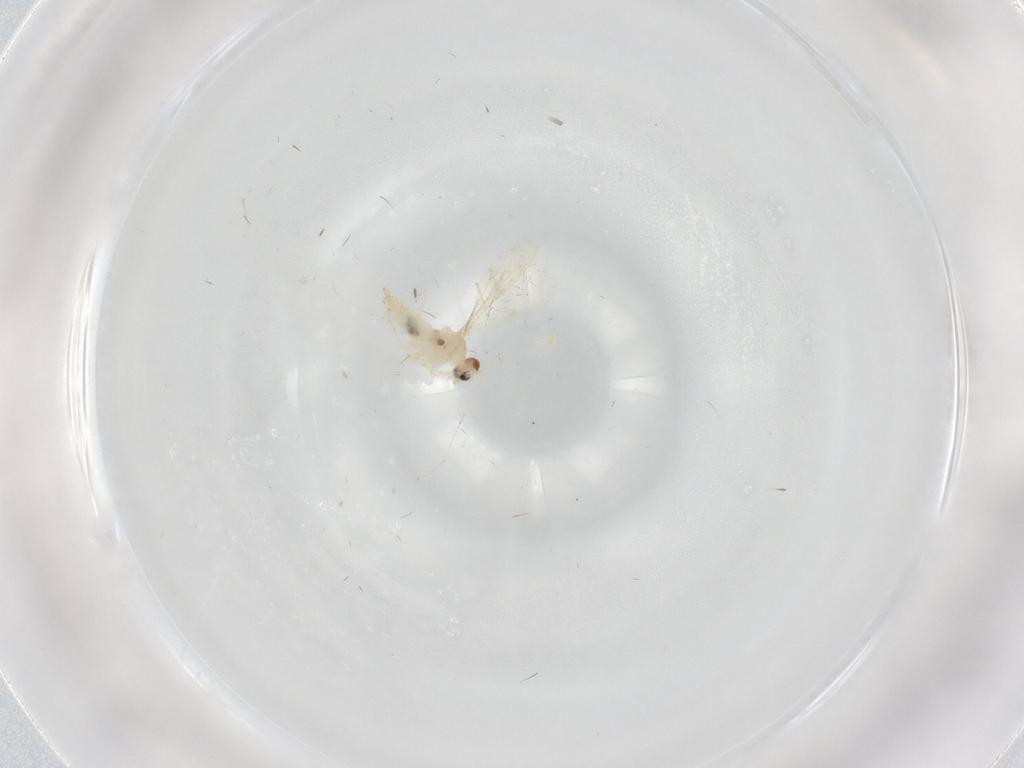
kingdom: Animalia
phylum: Arthropoda
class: Insecta
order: Diptera
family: Cecidomyiidae
